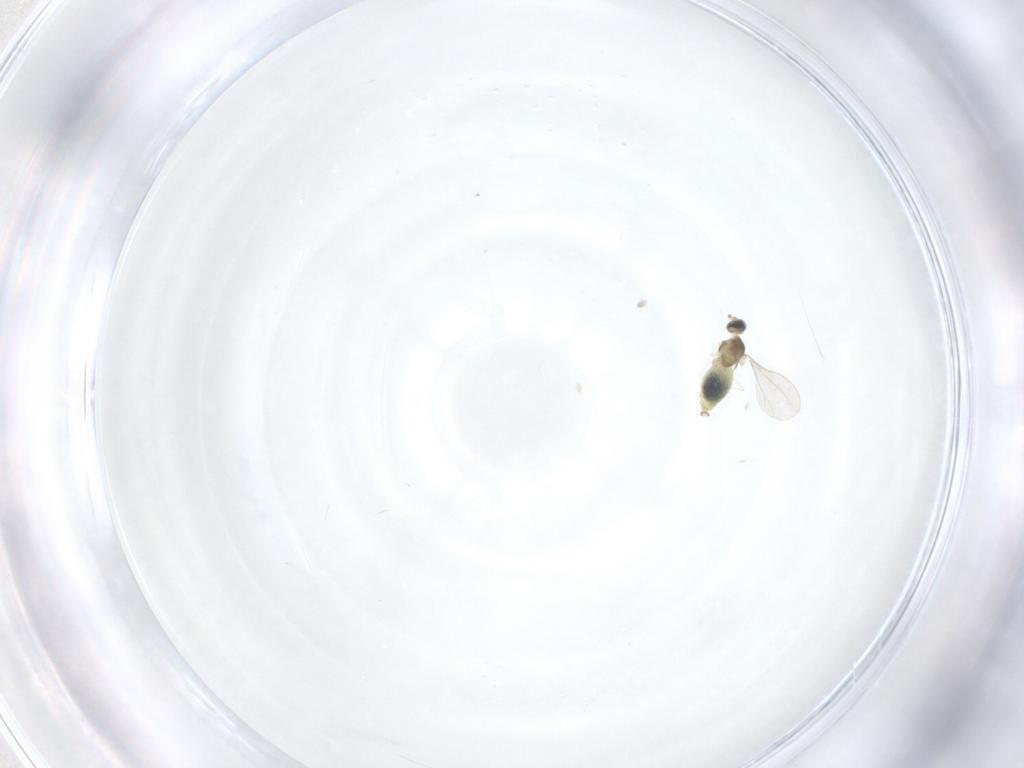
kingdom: Animalia
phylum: Arthropoda
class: Insecta
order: Diptera
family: Cecidomyiidae
